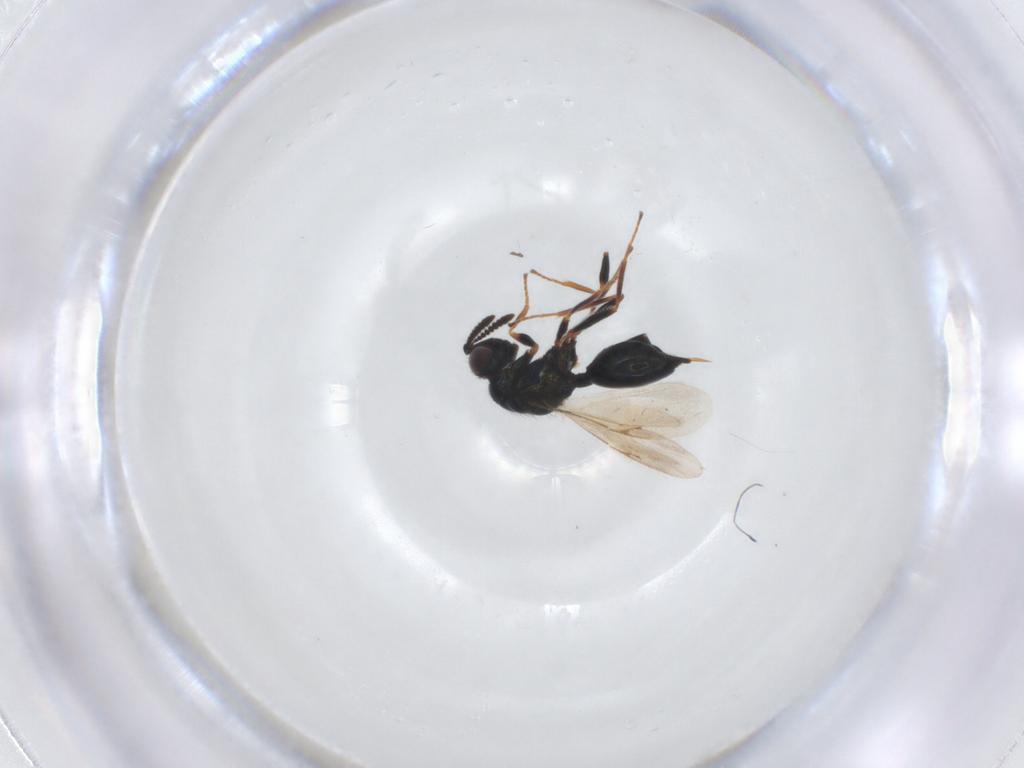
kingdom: Animalia
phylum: Arthropoda
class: Insecta
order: Hymenoptera
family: Chalcidoidea_incertae_sedis
